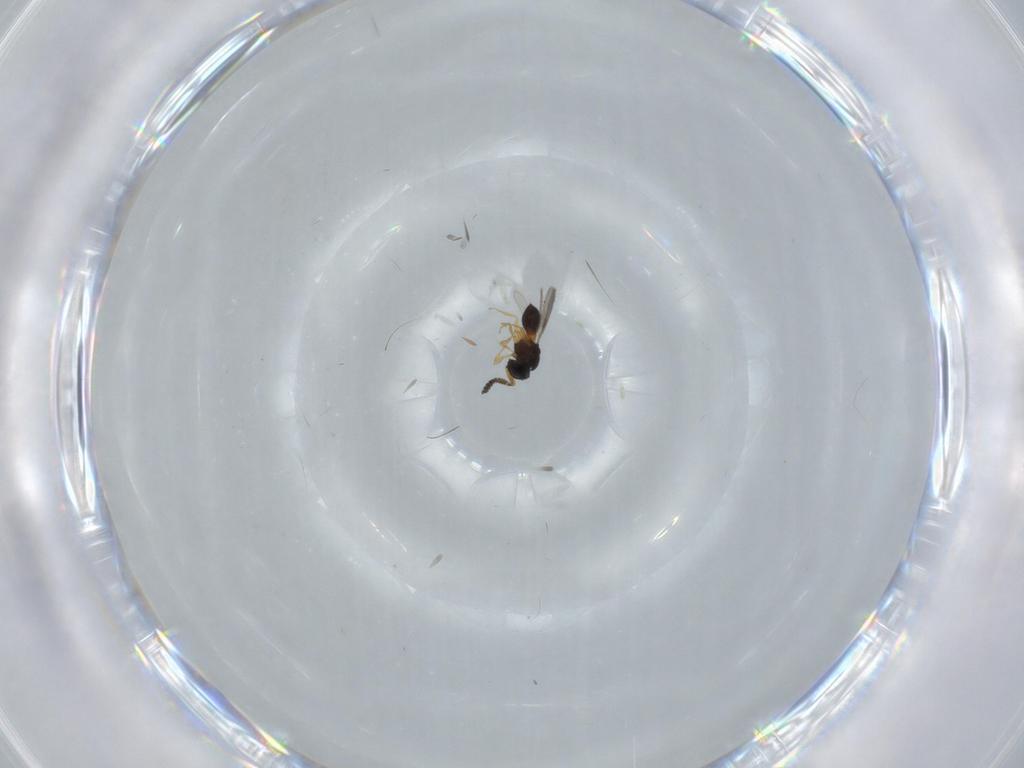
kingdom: Animalia
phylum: Arthropoda
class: Insecta
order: Hymenoptera
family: Scelionidae
